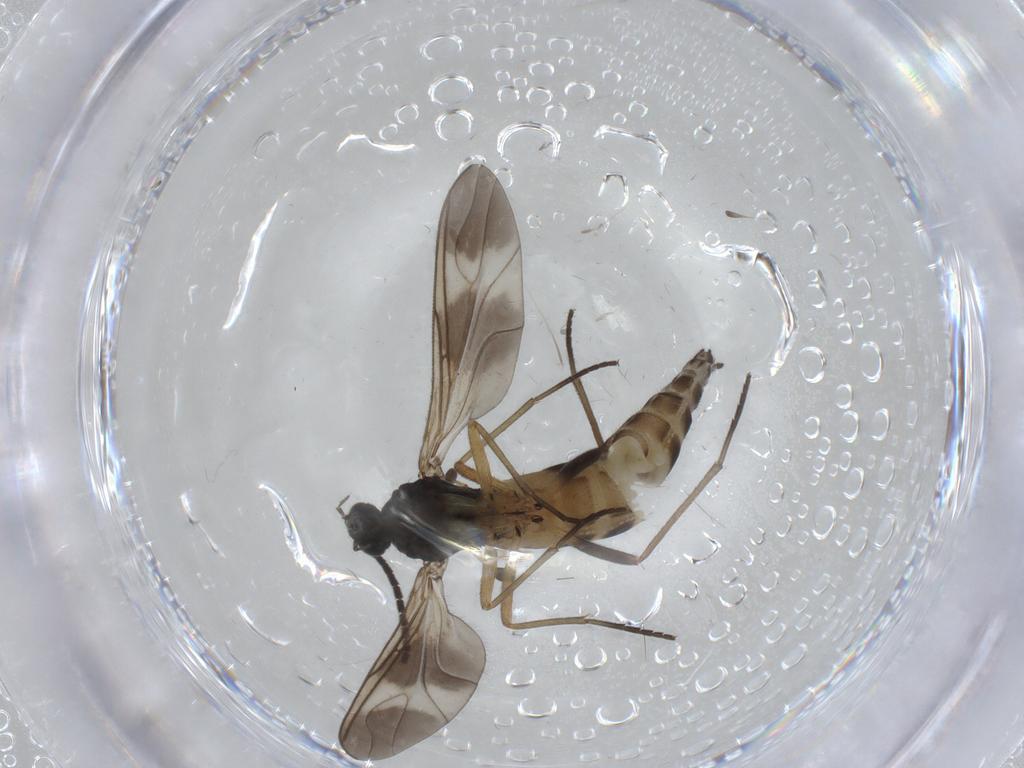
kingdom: Animalia
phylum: Arthropoda
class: Insecta
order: Diptera
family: Sciaridae
